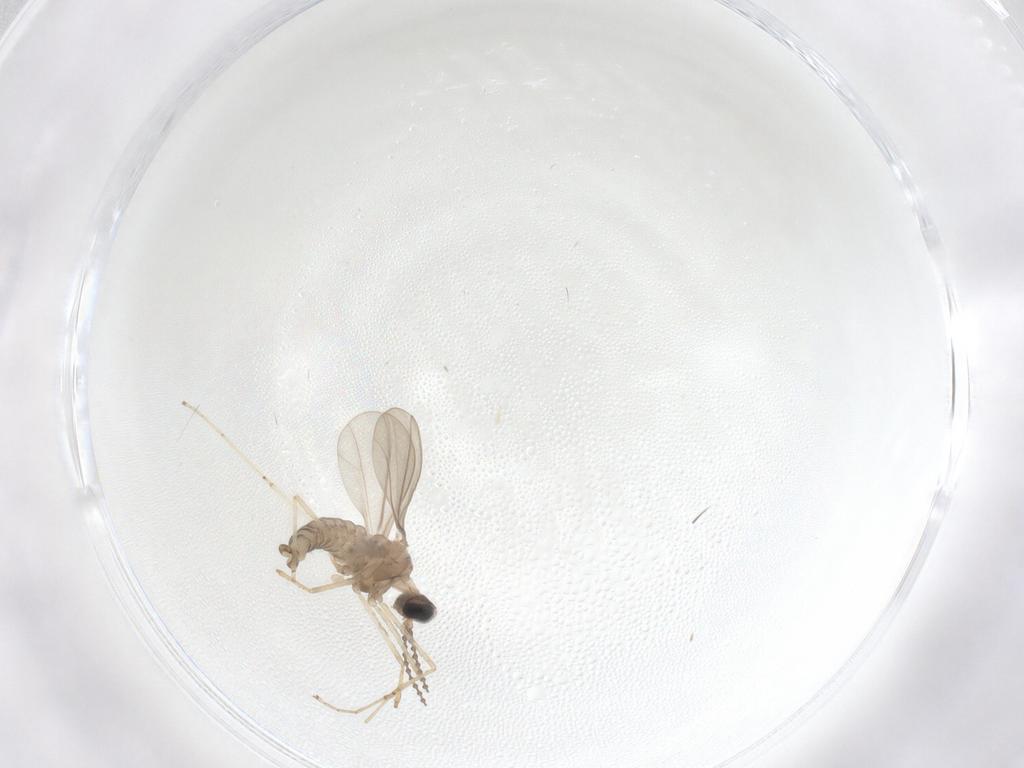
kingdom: Animalia
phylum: Arthropoda
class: Insecta
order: Diptera
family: Cecidomyiidae
